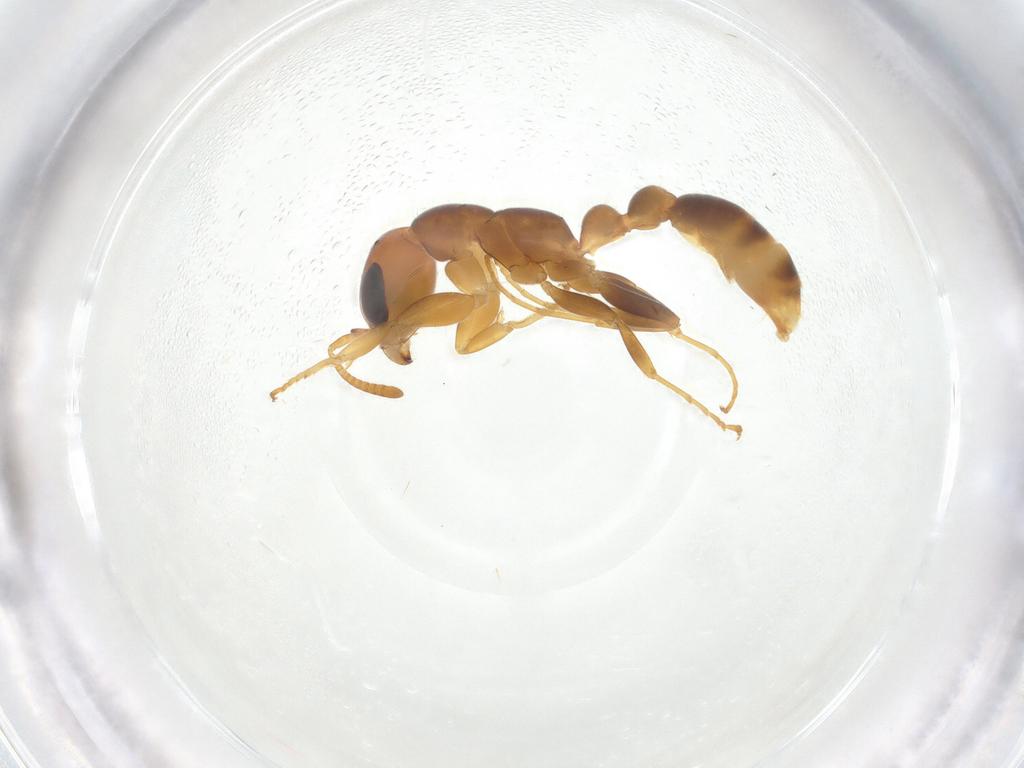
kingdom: Animalia
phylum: Arthropoda
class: Insecta
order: Hymenoptera
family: Formicidae
